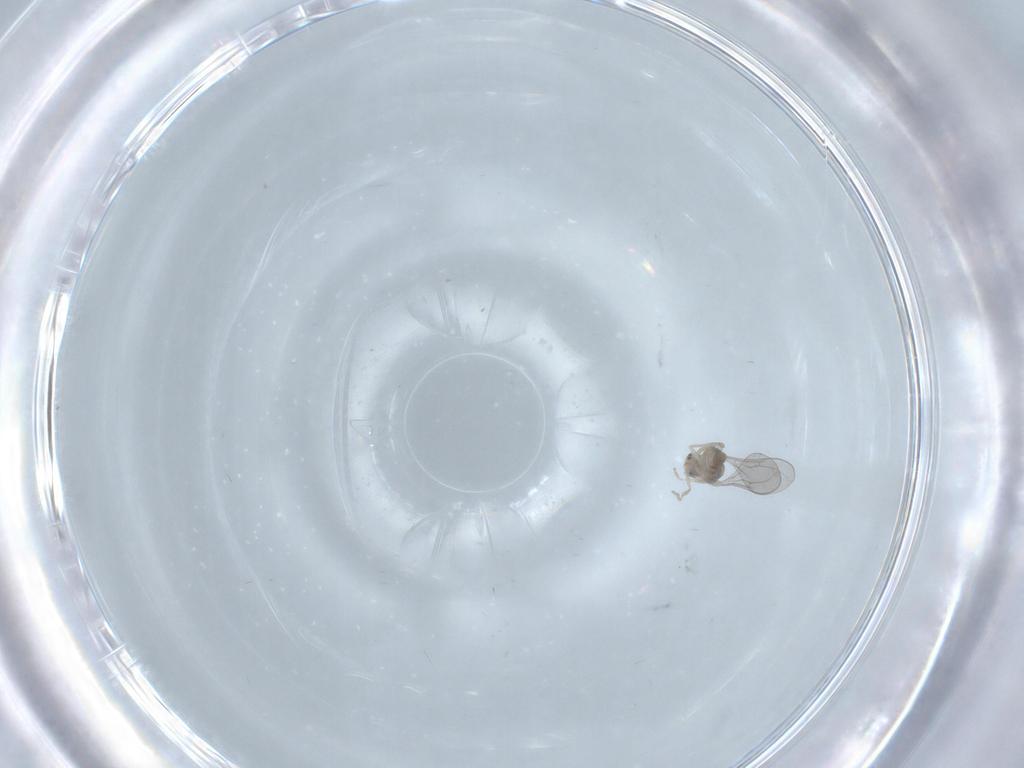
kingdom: Animalia
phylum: Arthropoda
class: Insecta
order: Diptera
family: Cecidomyiidae
